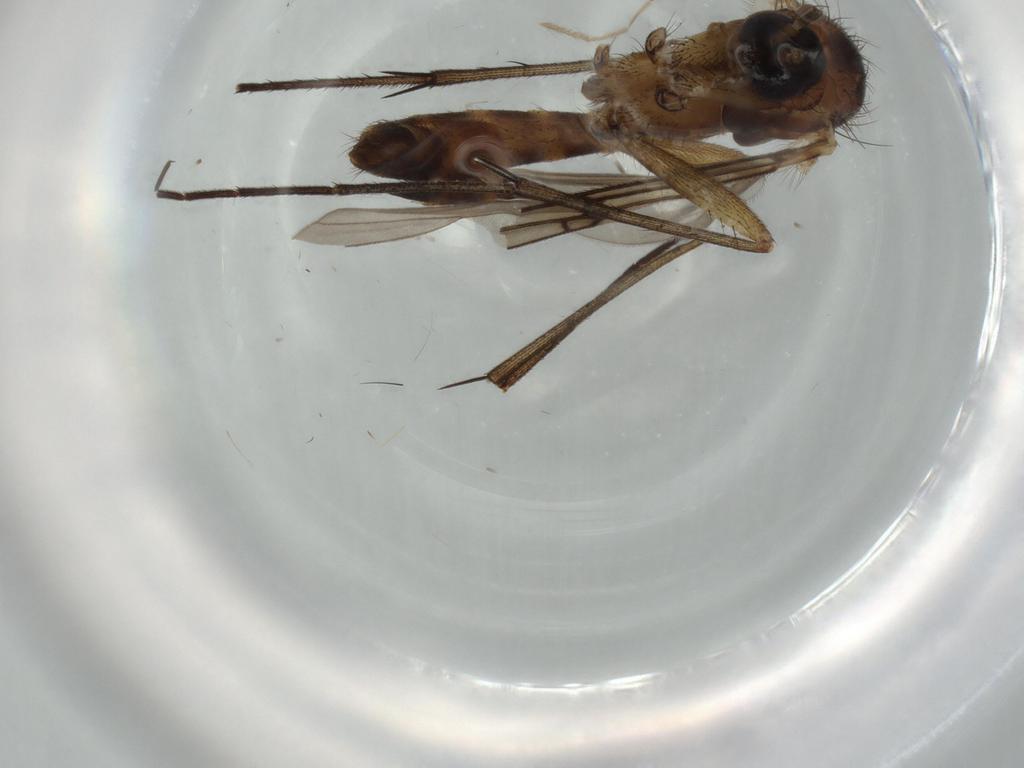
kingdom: Animalia
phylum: Arthropoda
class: Insecta
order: Diptera
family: Mycetophilidae
